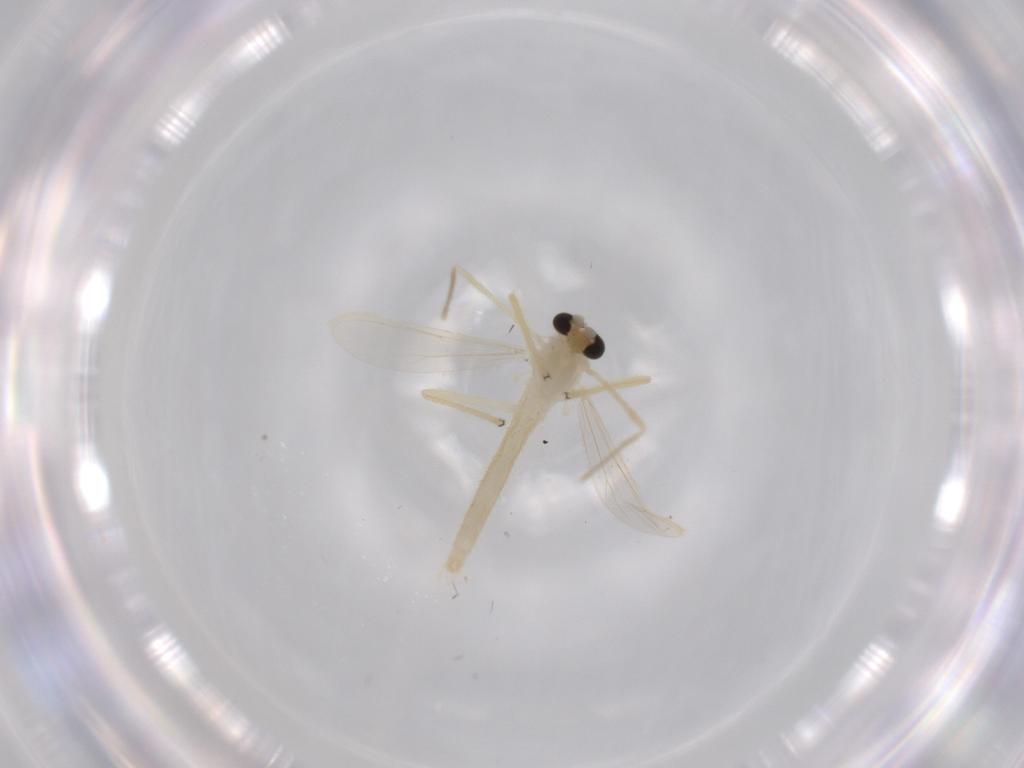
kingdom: Animalia
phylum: Arthropoda
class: Insecta
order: Diptera
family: Chironomidae
